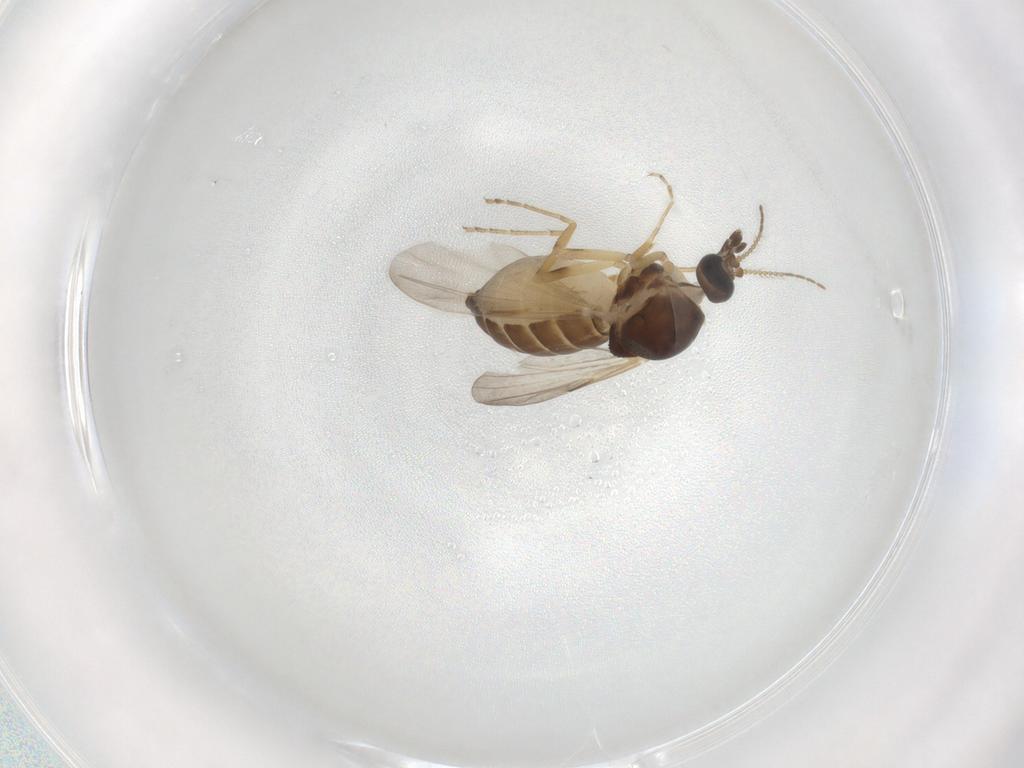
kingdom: Animalia
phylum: Arthropoda
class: Insecta
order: Diptera
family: Ceratopogonidae
